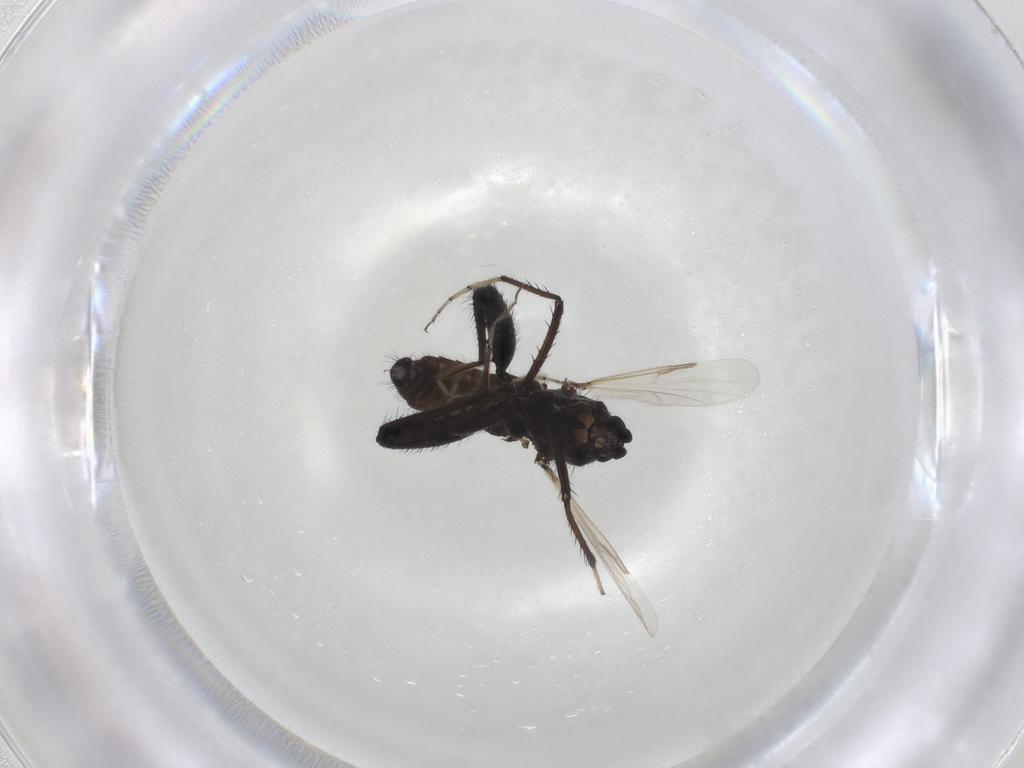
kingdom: Animalia
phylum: Arthropoda
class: Insecta
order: Diptera
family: Ceratopogonidae
